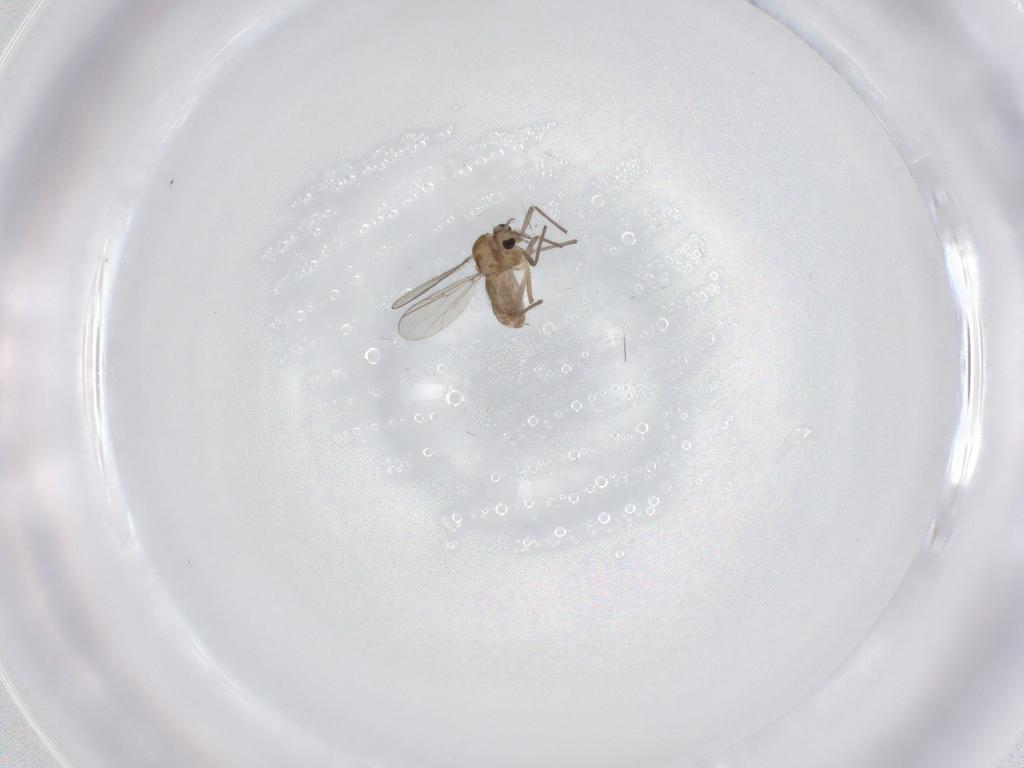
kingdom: Animalia
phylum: Arthropoda
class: Insecta
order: Diptera
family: Chironomidae
